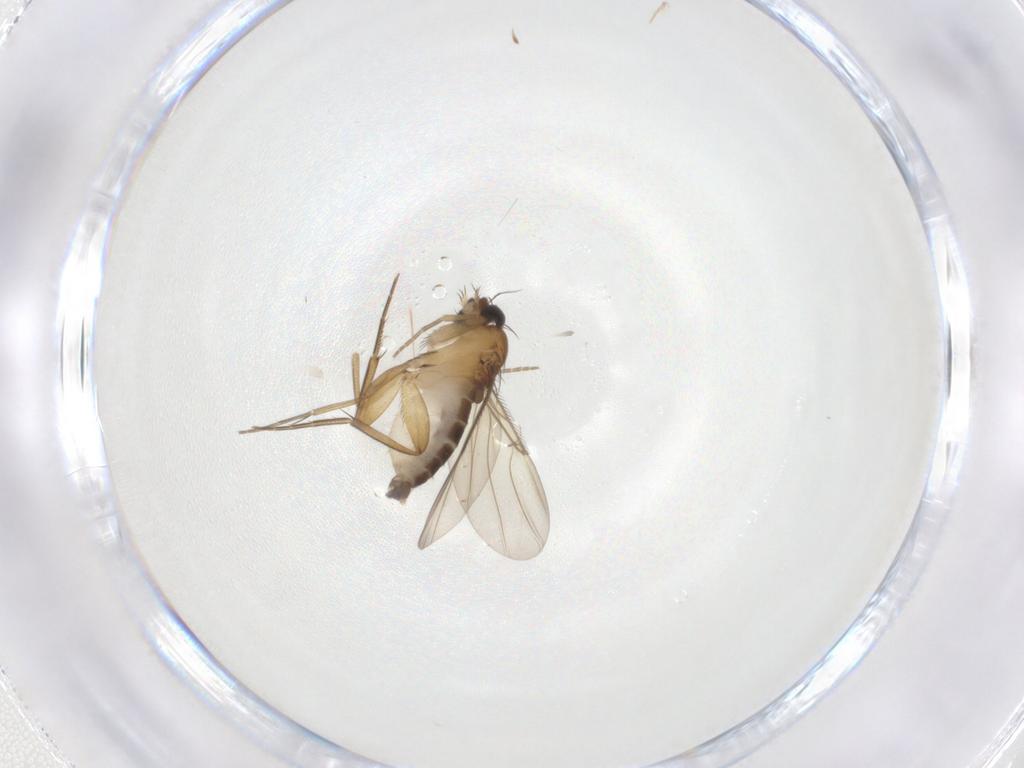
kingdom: Animalia
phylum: Arthropoda
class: Insecta
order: Diptera
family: Phoridae
